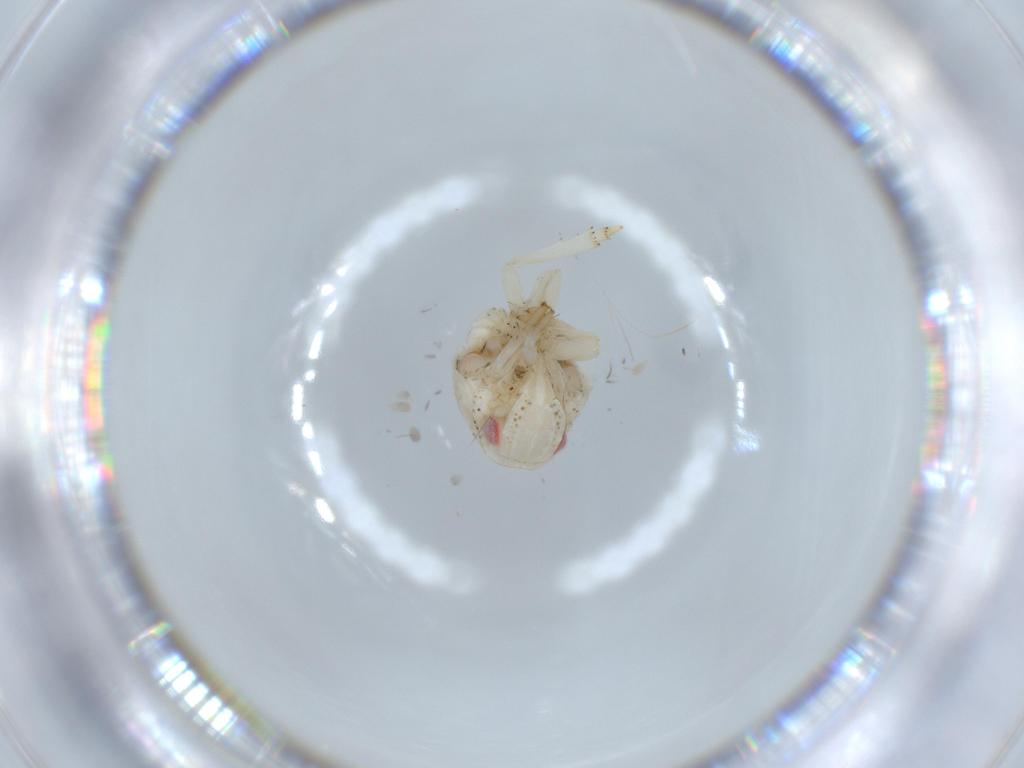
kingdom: Animalia
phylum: Arthropoda
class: Insecta
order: Hemiptera
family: Acanaloniidae
